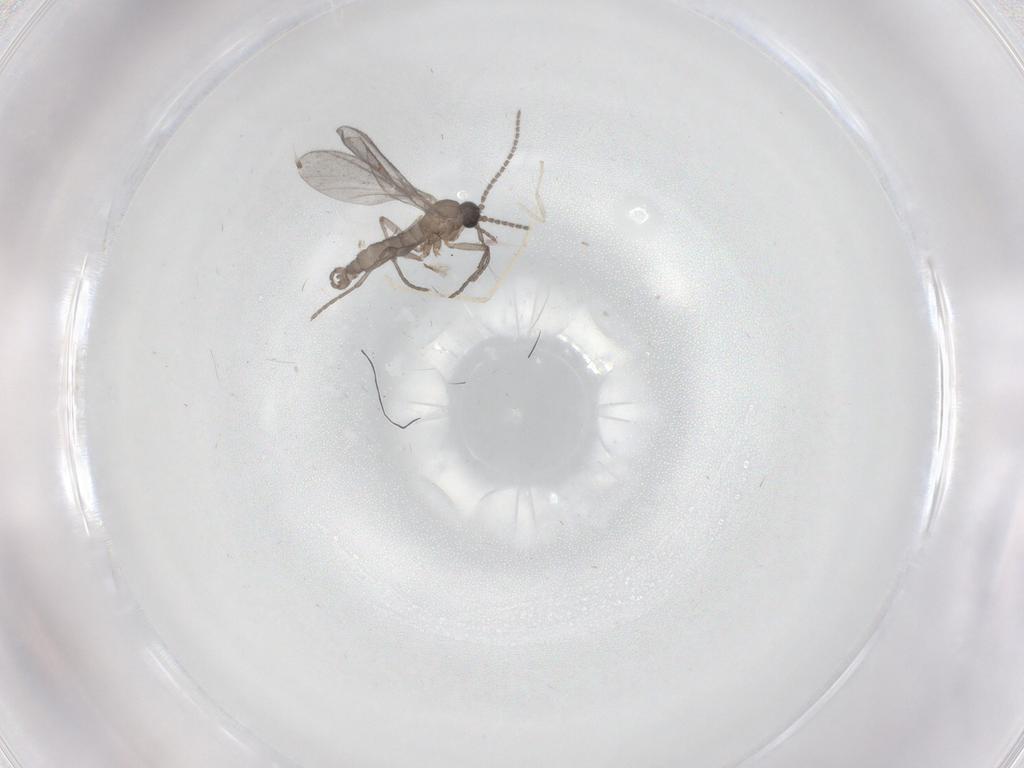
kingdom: Animalia
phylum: Arthropoda
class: Insecta
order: Diptera
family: Sciaridae
